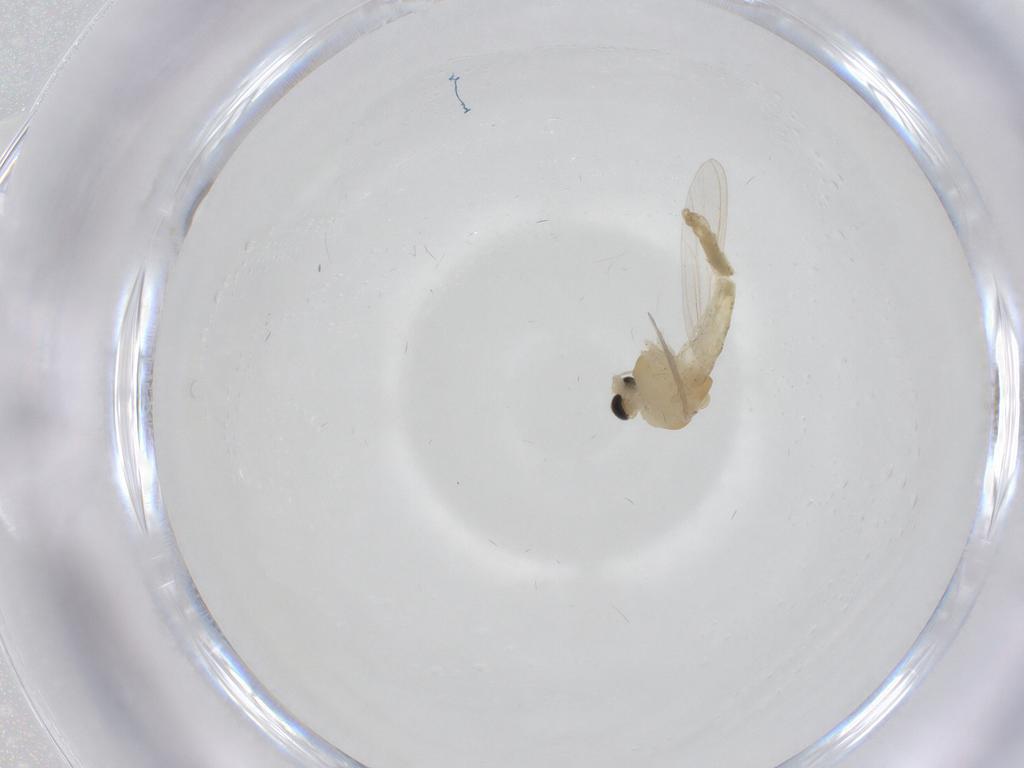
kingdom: Animalia
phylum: Arthropoda
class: Insecta
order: Diptera
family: Chironomidae
